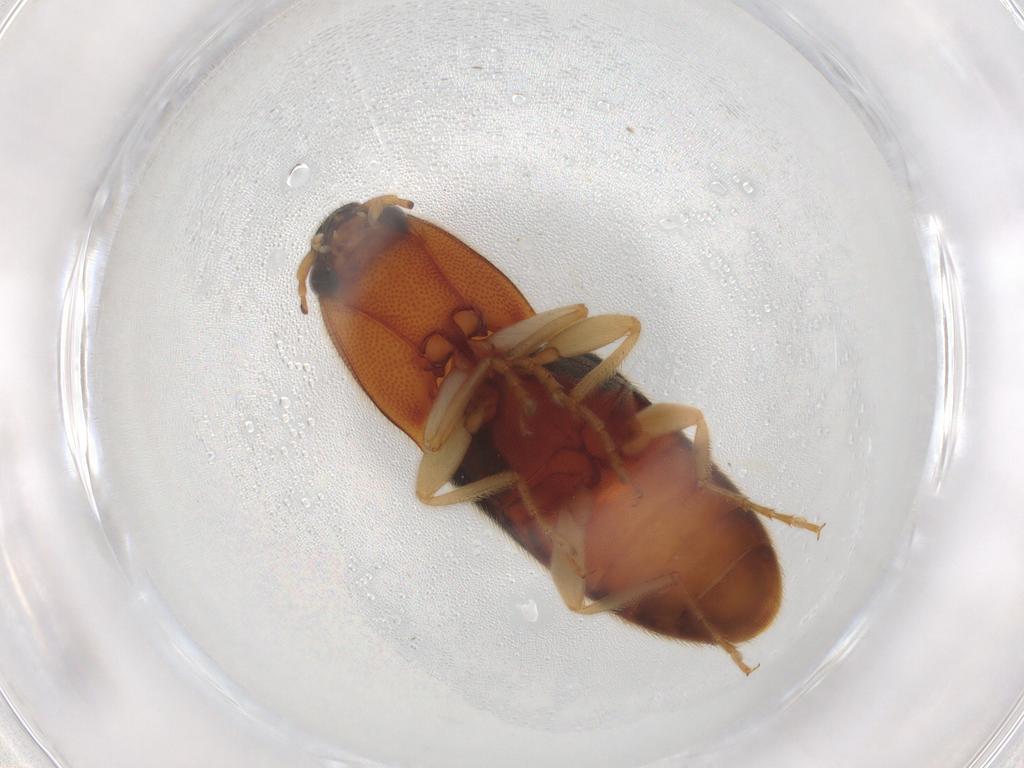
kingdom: Animalia
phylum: Arthropoda
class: Insecta
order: Coleoptera
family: Elateridae
